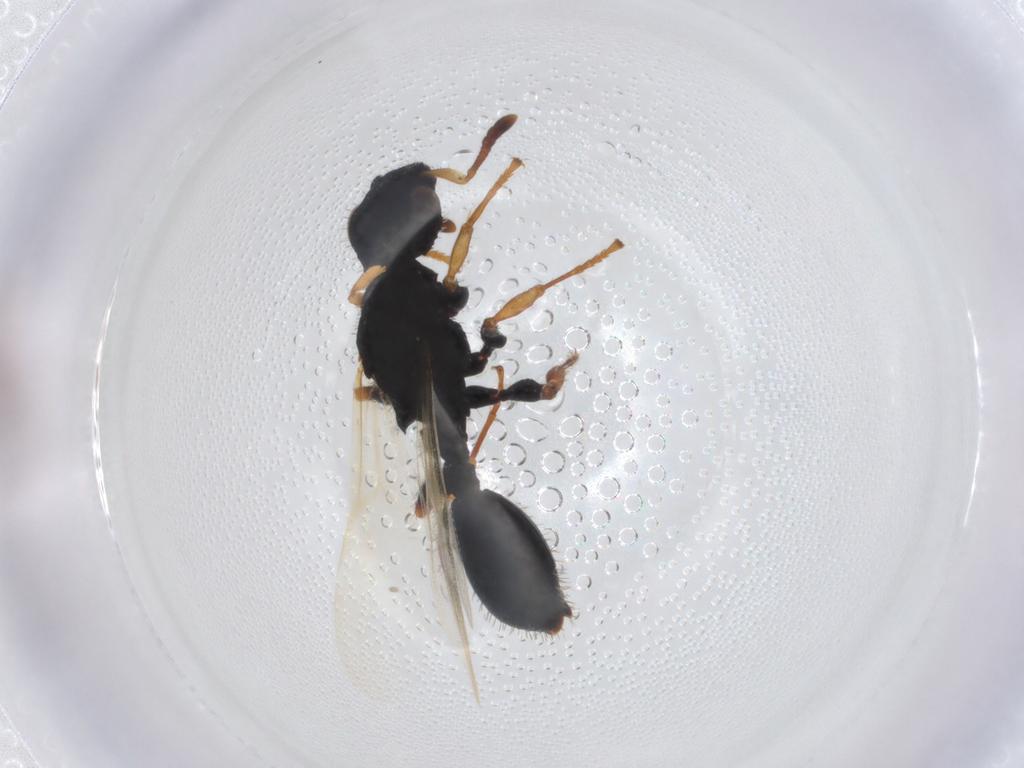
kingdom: Animalia
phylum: Arthropoda
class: Insecta
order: Hymenoptera
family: Formicidae
